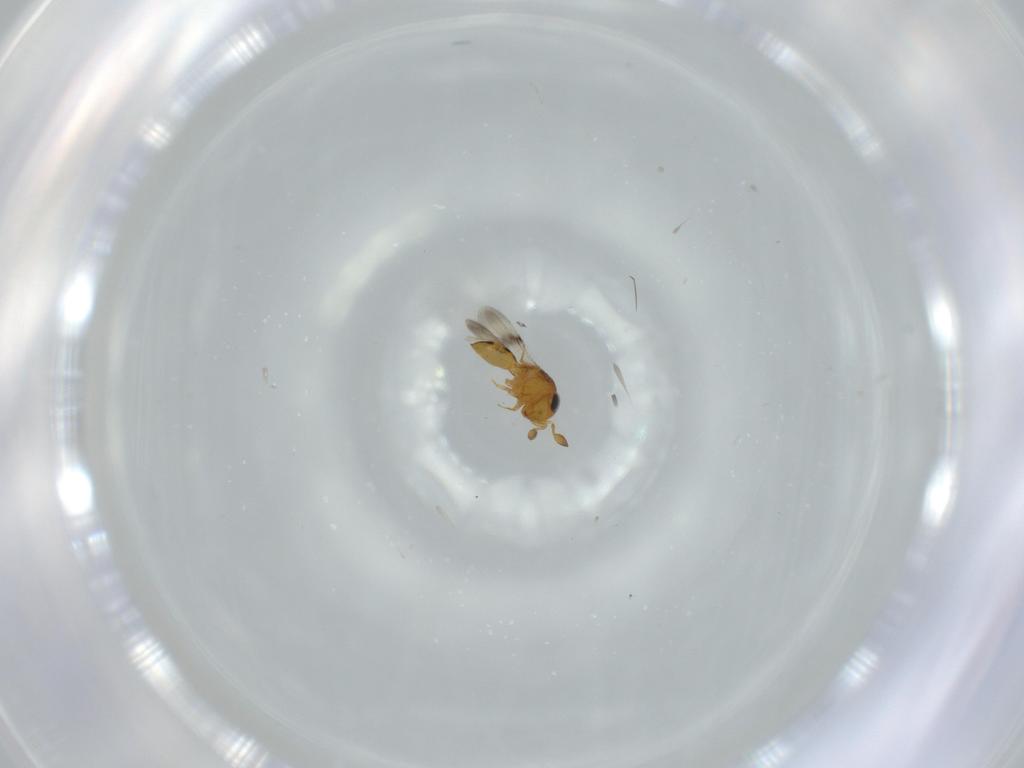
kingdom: Animalia
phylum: Arthropoda
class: Insecta
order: Hymenoptera
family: Scelionidae
